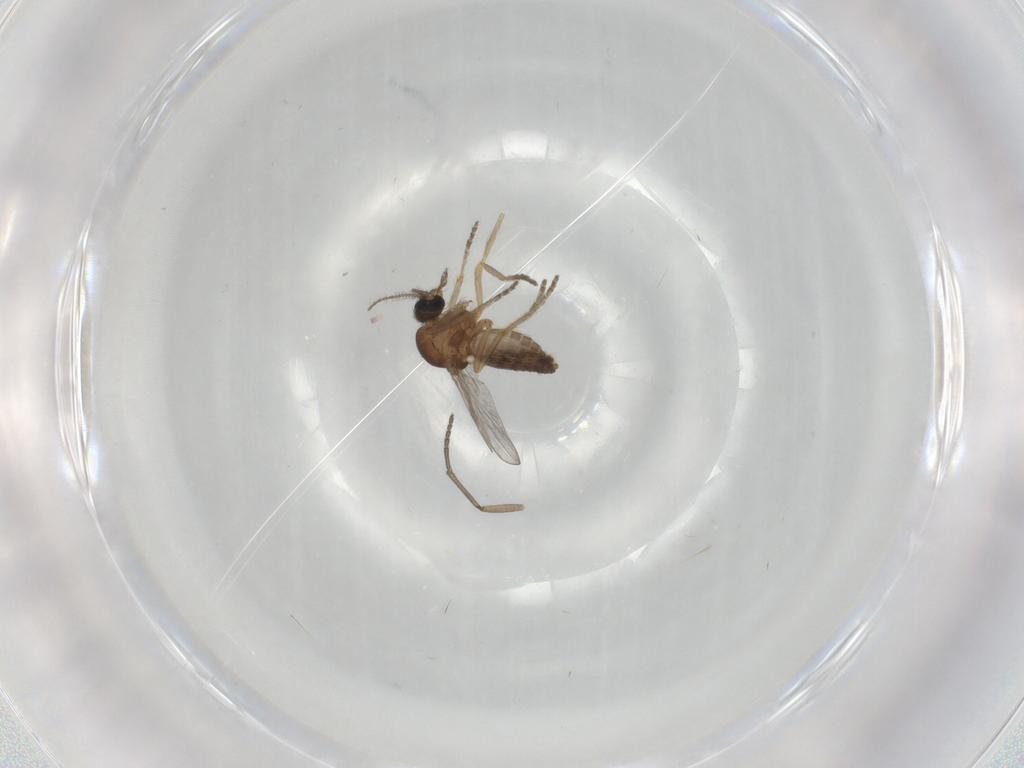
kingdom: Animalia
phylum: Arthropoda
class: Insecta
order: Diptera
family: Ceratopogonidae
